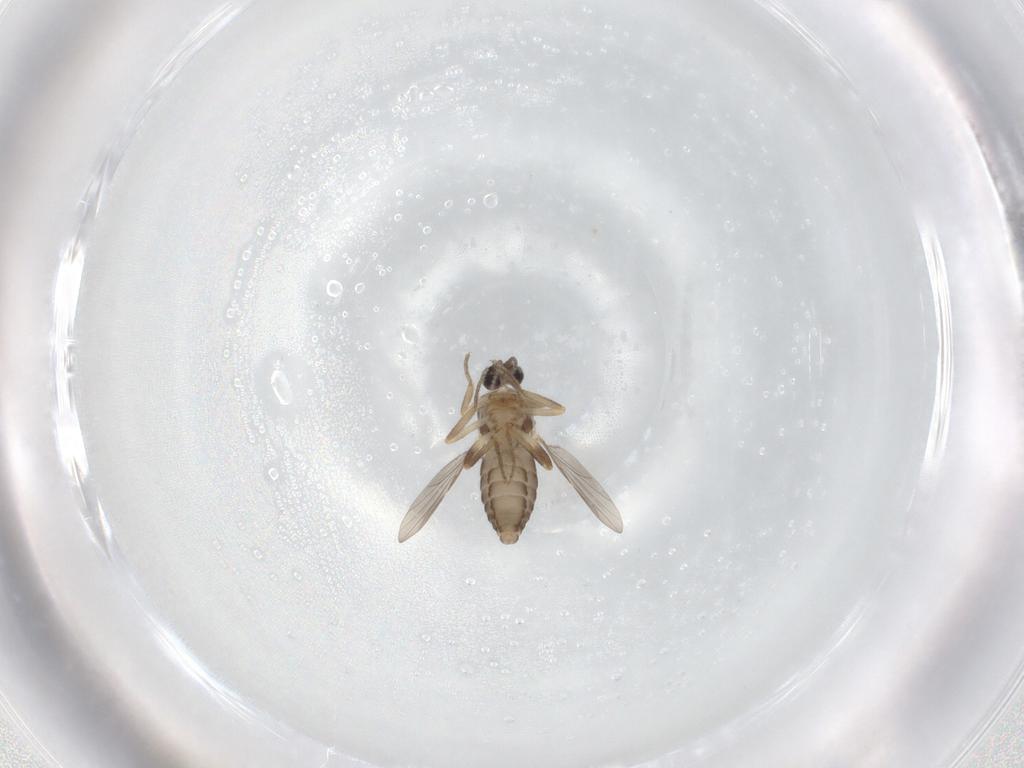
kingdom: Animalia
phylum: Arthropoda
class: Insecta
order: Diptera
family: Ceratopogonidae
